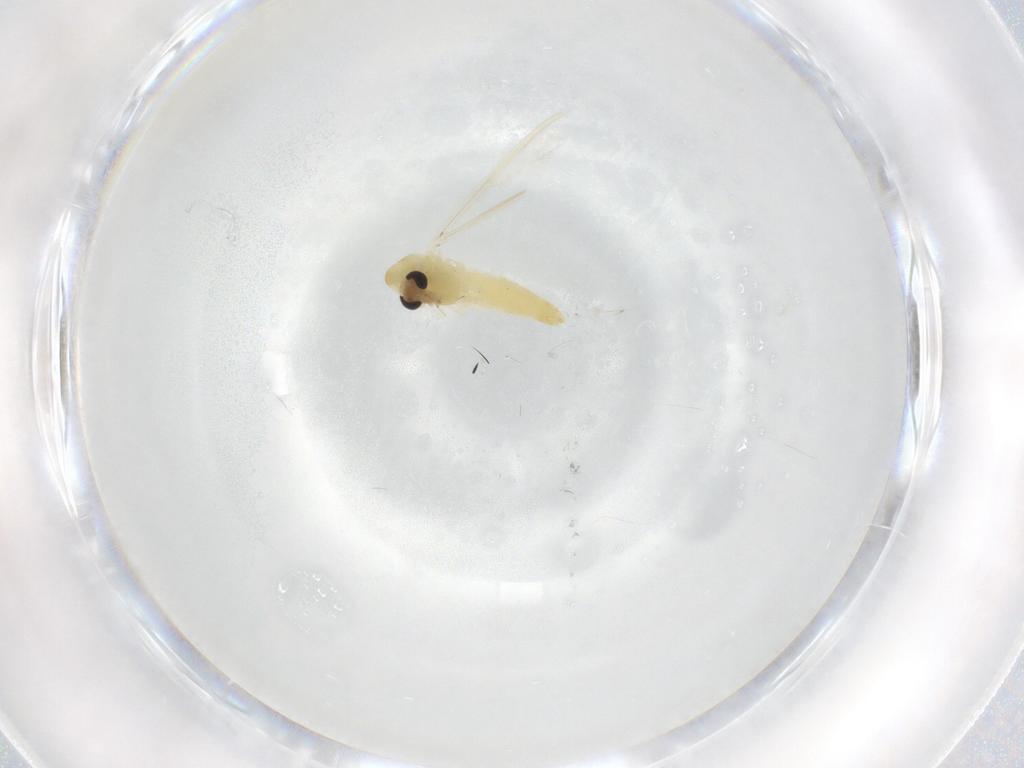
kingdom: Animalia
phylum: Arthropoda
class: Insecta
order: Diptera
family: Chironomidae
